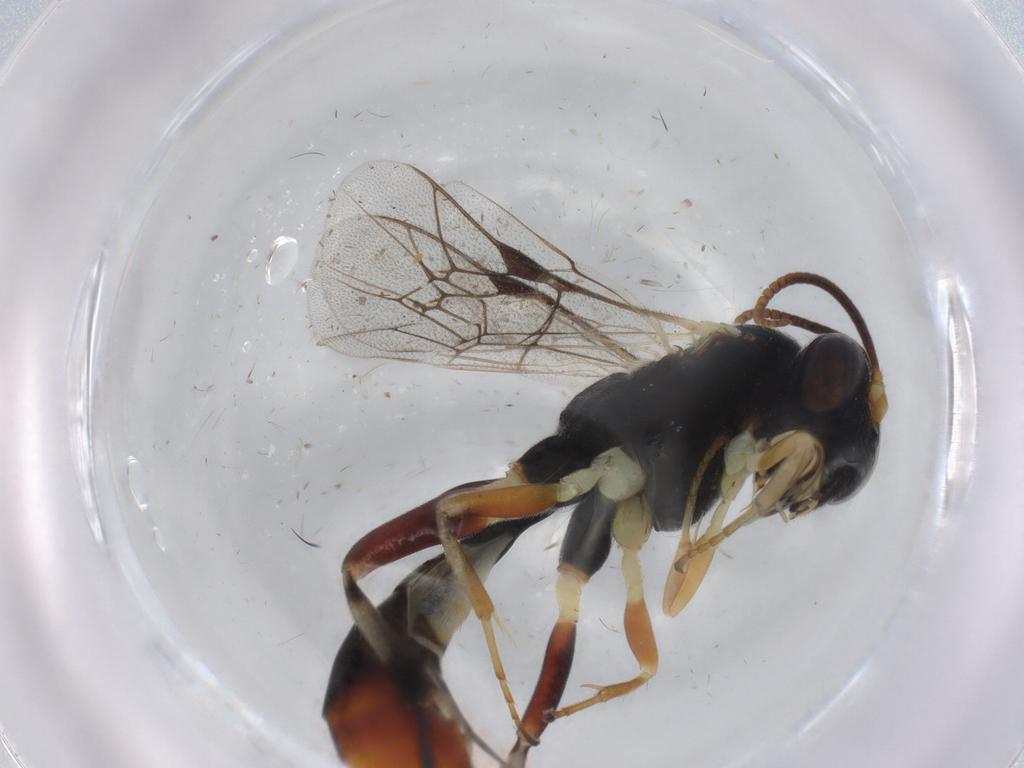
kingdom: Animalia
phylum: Arthropoda
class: Insecta
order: Hymenoptera
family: Ichneumonidae
